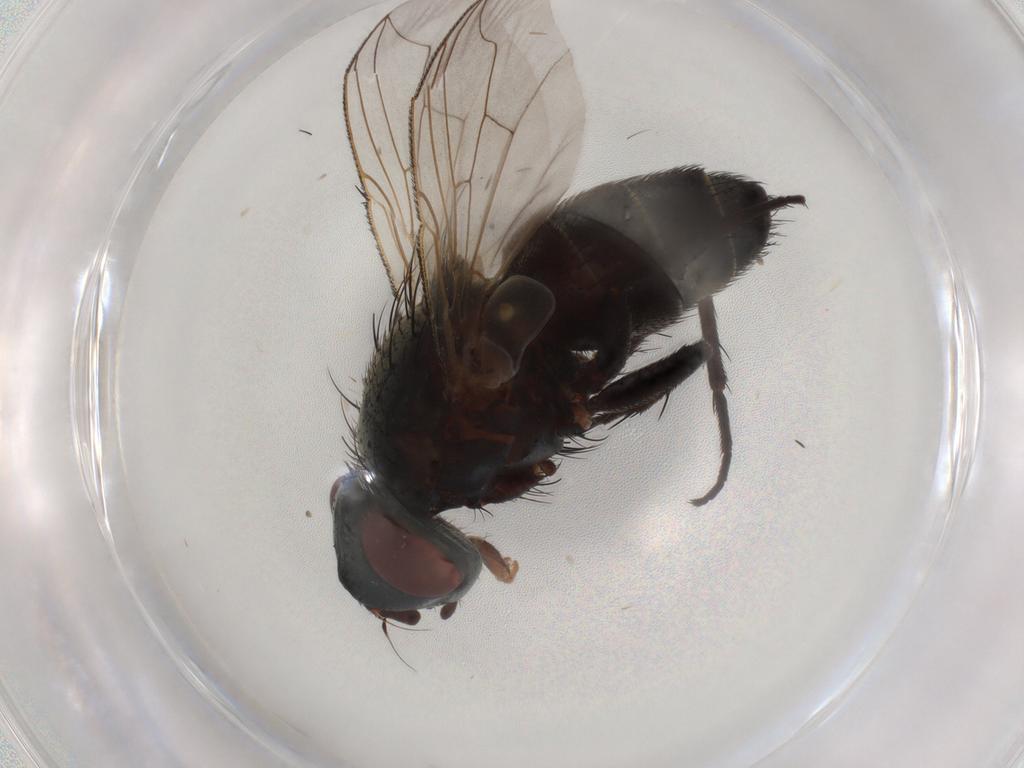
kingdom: Animalia
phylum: Arthropoda
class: Insecta
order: Diptera
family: Sarcophagidae
